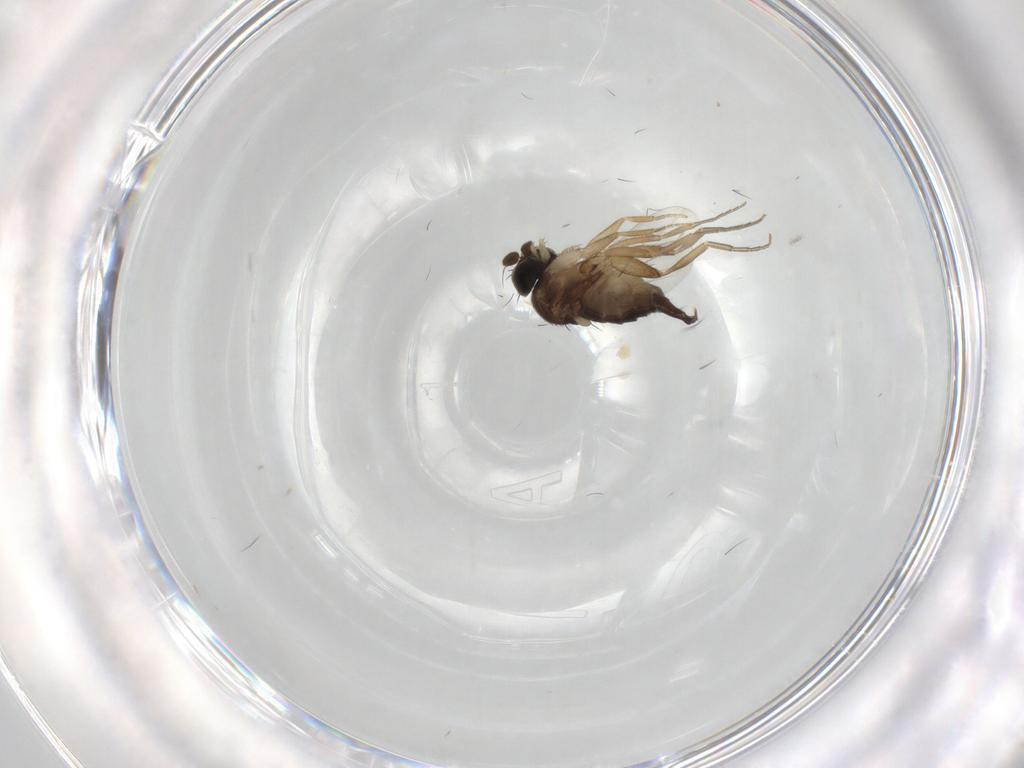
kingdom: Animalia
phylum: Arthropoda
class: Insecta
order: Diptera
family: Phoridae
